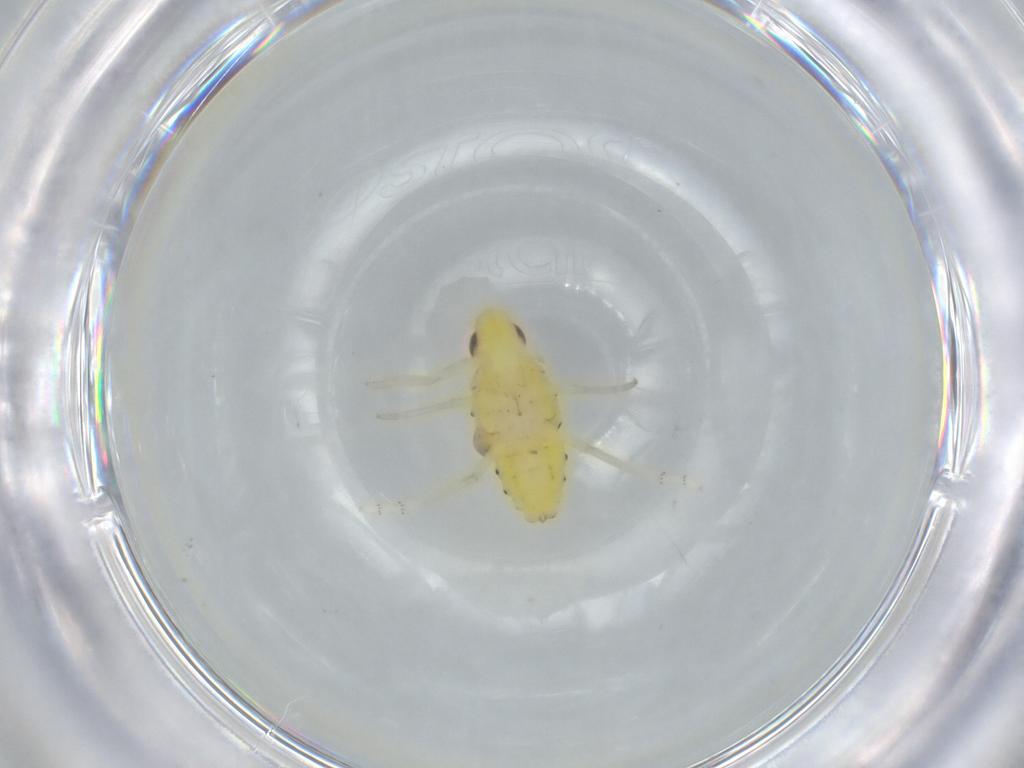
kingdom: Animalia
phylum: Arthropoda
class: Insecta
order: Hemiptera
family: Tropiduchidae
